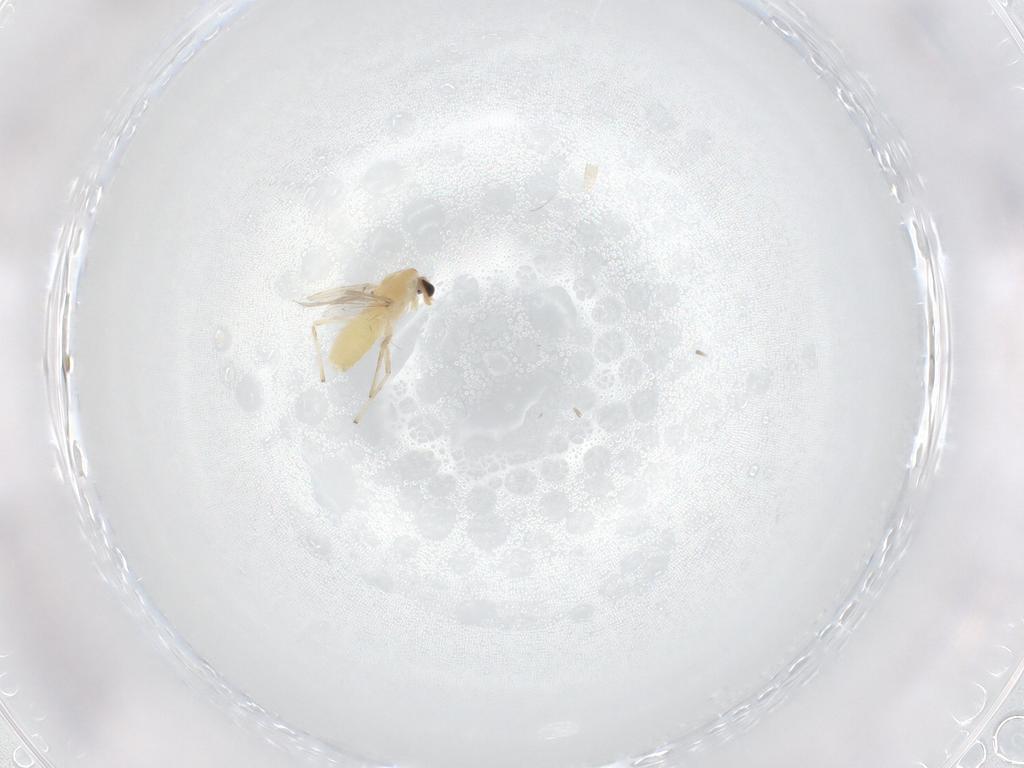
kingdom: Animalia
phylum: Arthropoda
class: Insecta
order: Diptera
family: Chironomidae
